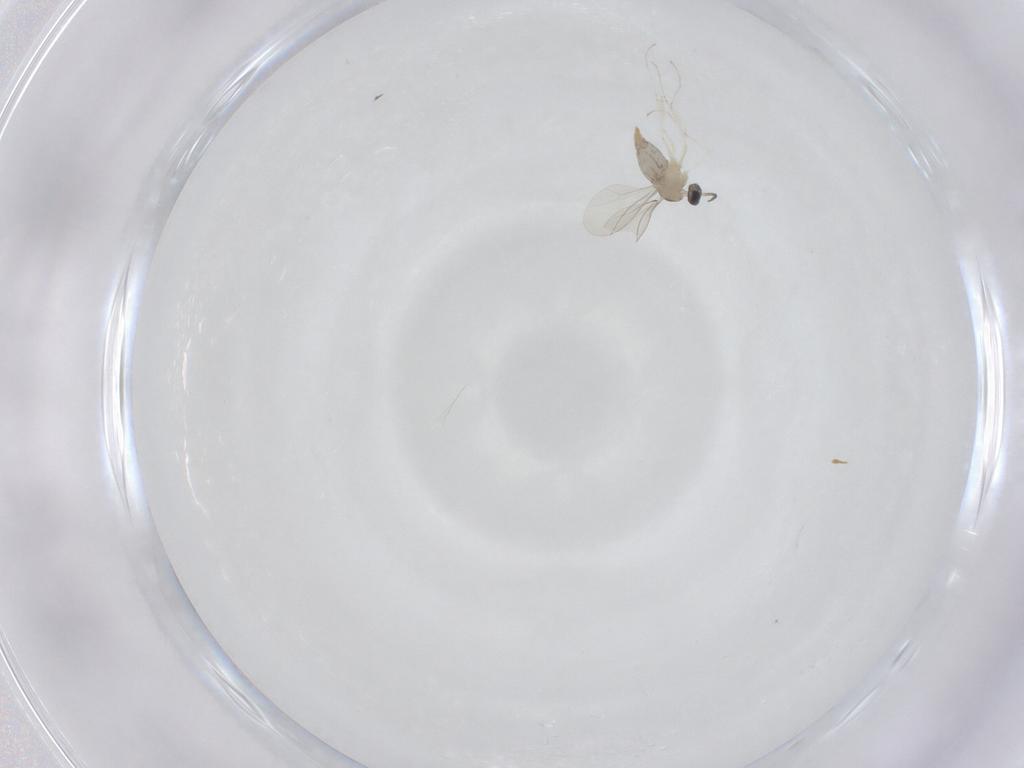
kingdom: Animalia
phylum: Arthropoda
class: Insecta
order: Diptera
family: Cecidomyiidae
